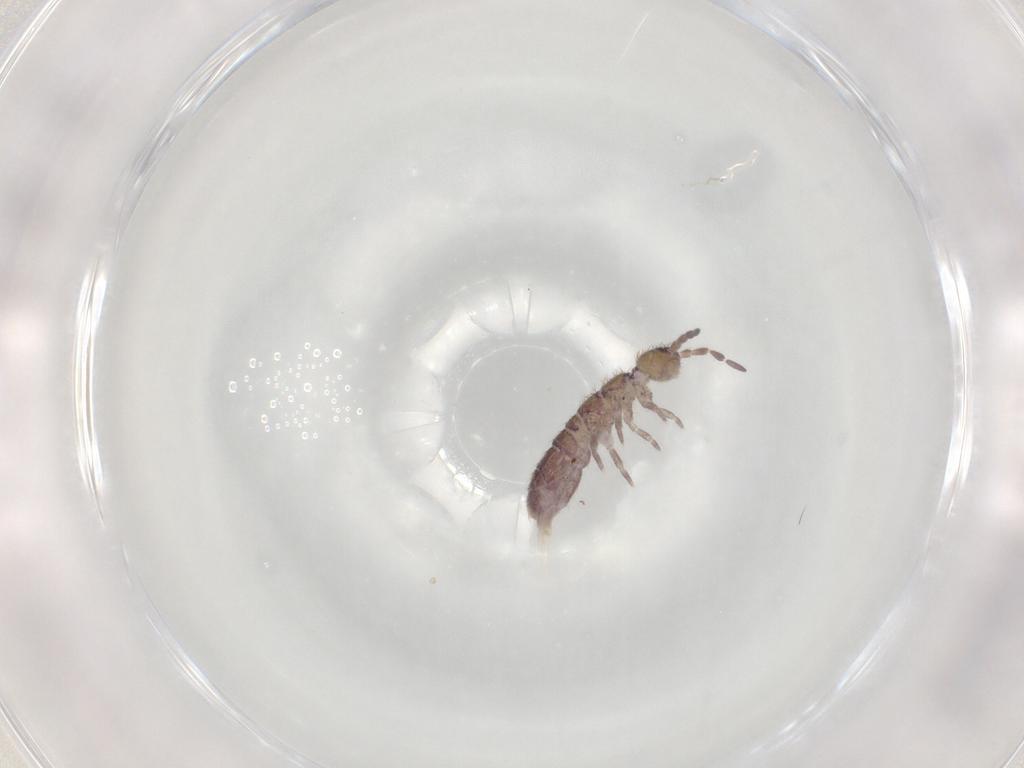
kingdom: Animalia
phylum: Arthropoda
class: Collembola
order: Entomobryomorpha
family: Isotomidae
